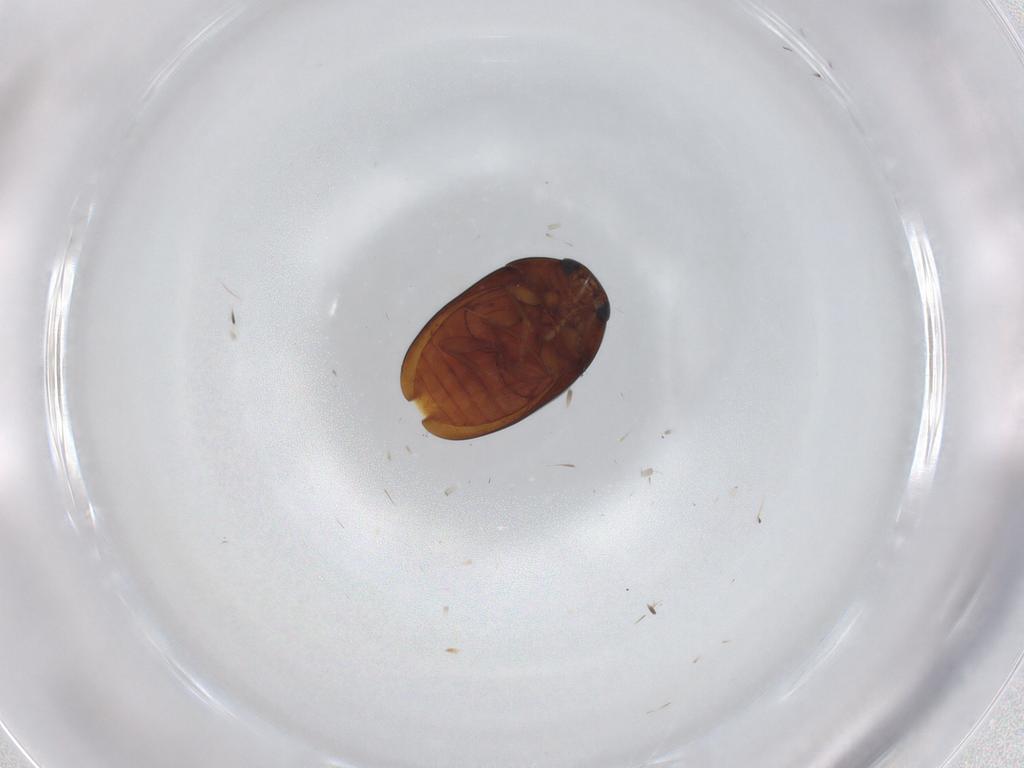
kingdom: Animalia
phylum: Arthropoda
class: Insecta
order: Coleoptera
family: Phalacridae
